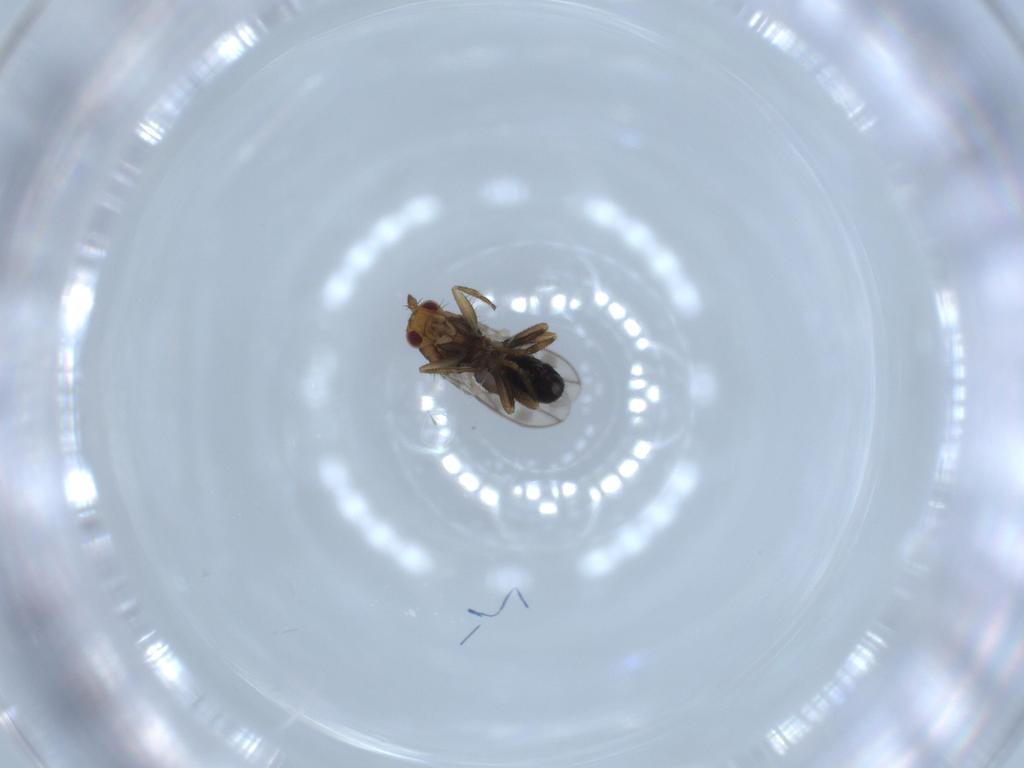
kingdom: Animalia
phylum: Arthropoda
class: Insecta
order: Diptera
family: Sphaeroceridae
